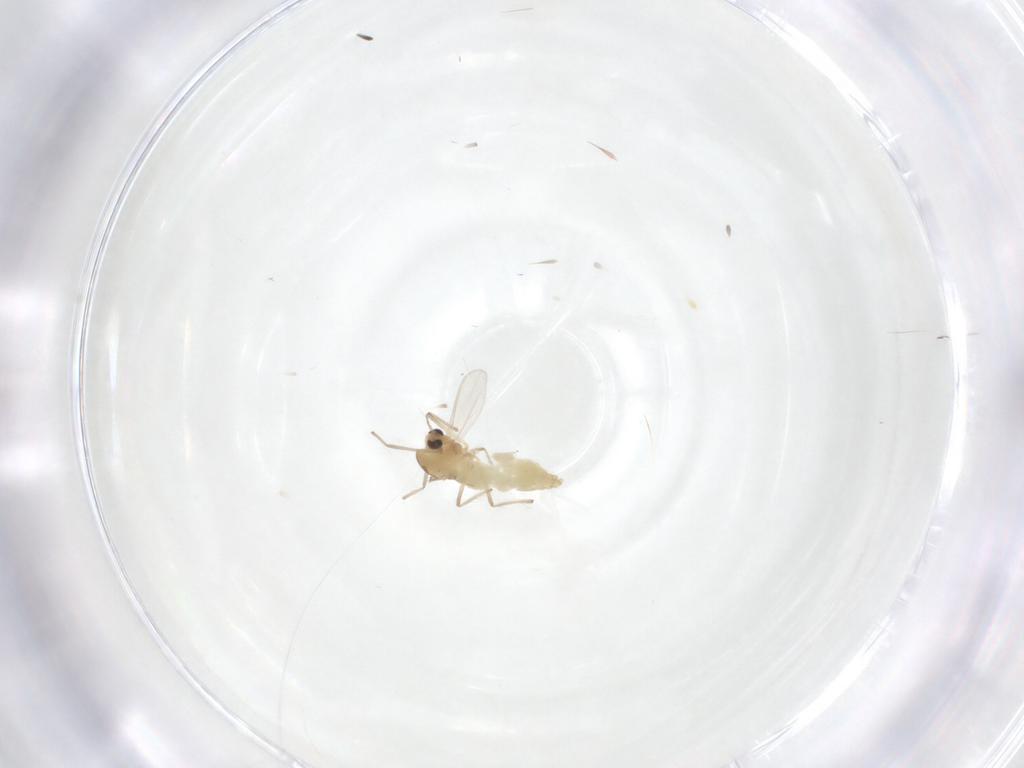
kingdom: Animalia
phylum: Arthropoda
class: Insecta
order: Diptera
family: Chironomidae
